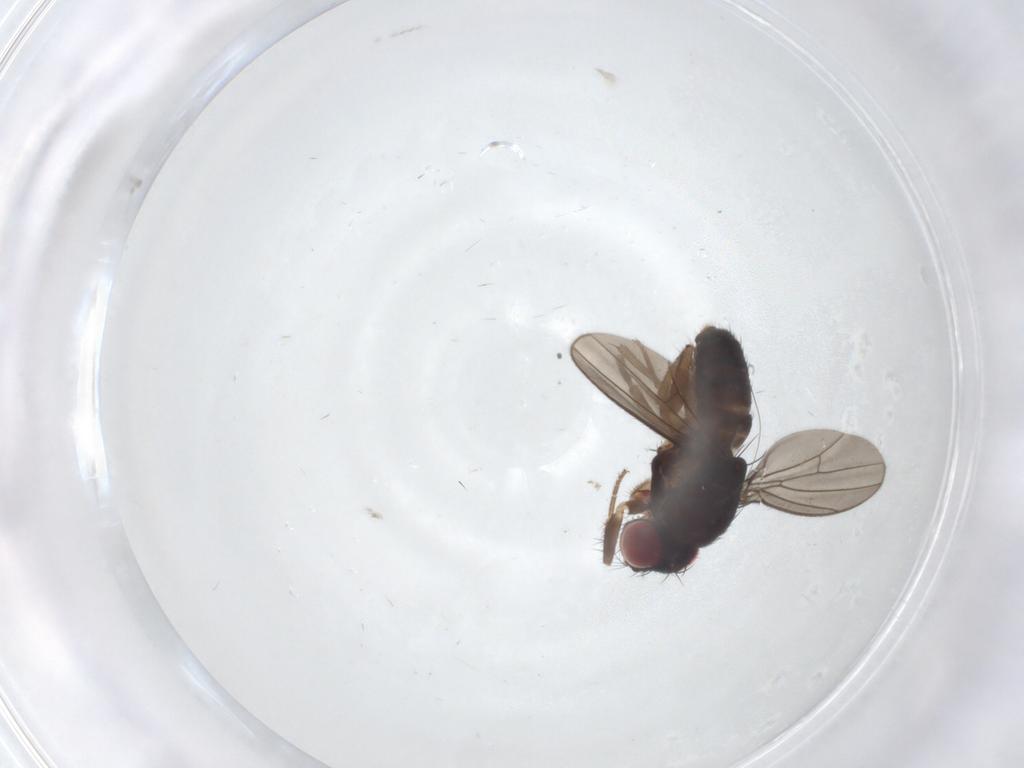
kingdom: Animalia
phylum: Arthropoda
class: Insecta
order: Diptera
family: Drosophilidae
